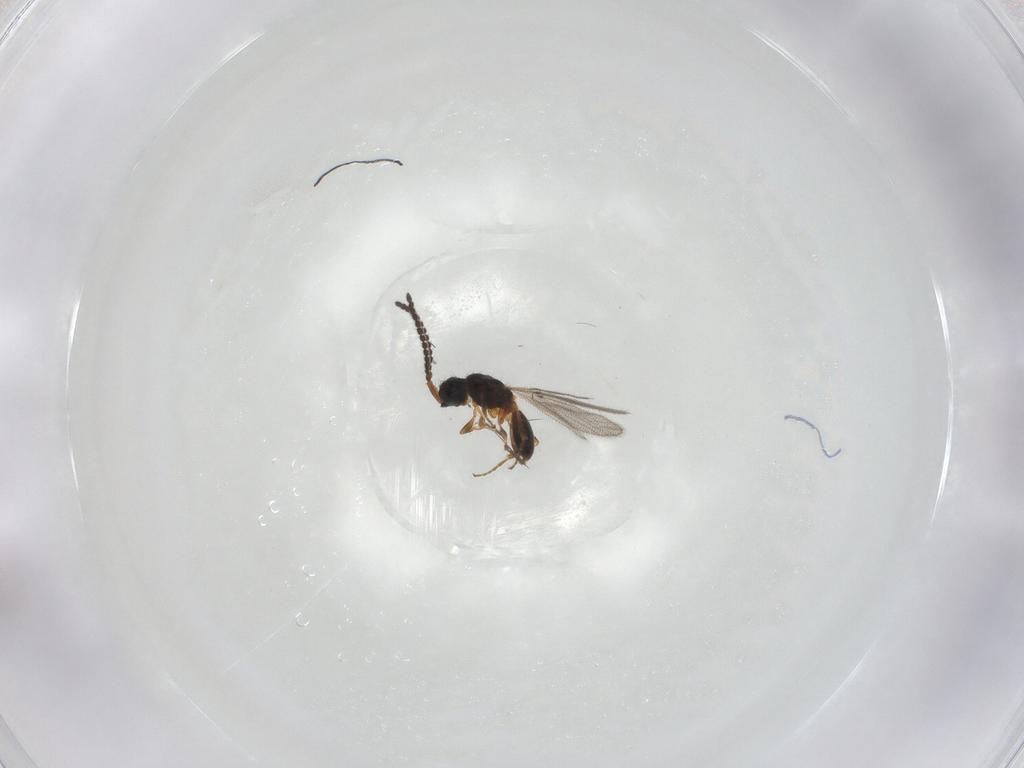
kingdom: Animalia
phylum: Arthropoda
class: Insecta
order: Hymenoptera
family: Diapriidae
